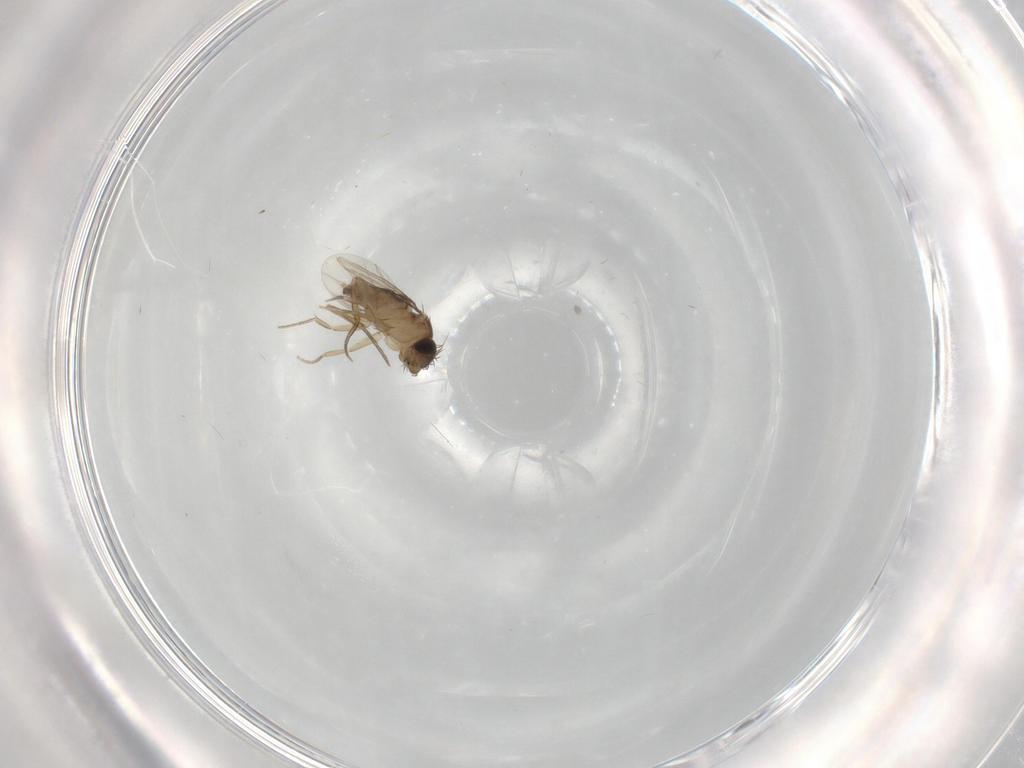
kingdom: Animalia
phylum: Arthropoda
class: Insecta
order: Diptera
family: Phoridae
